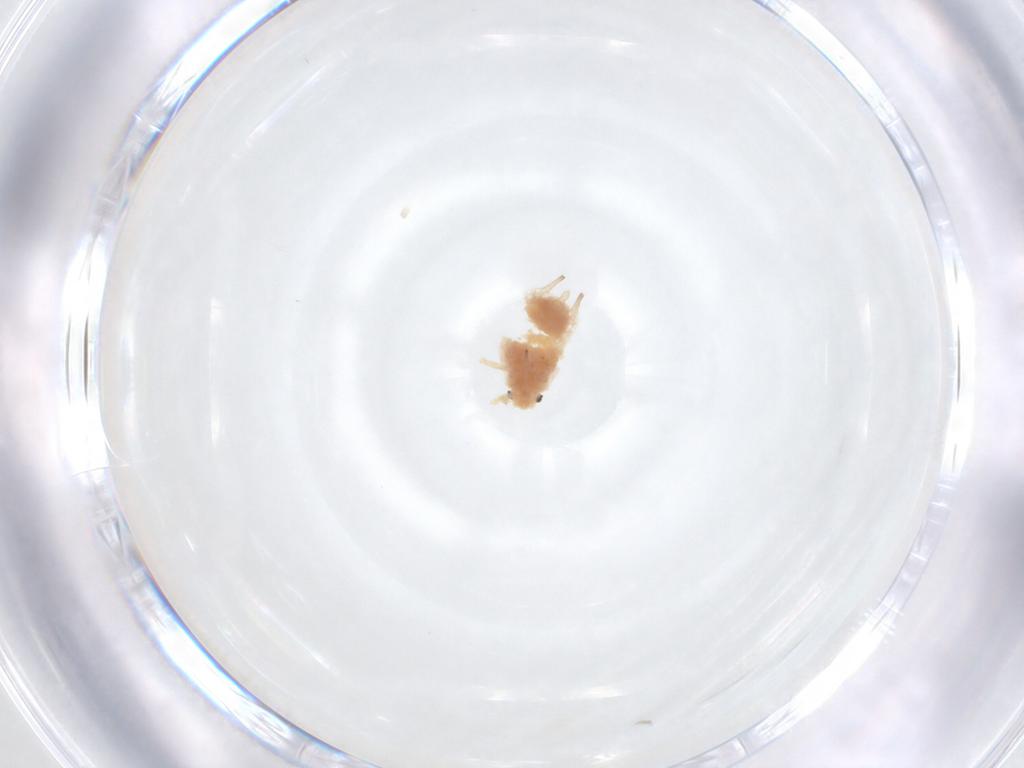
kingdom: Animalia
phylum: Arthropoda
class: Insecta
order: Hemiptera
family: Aphididae
